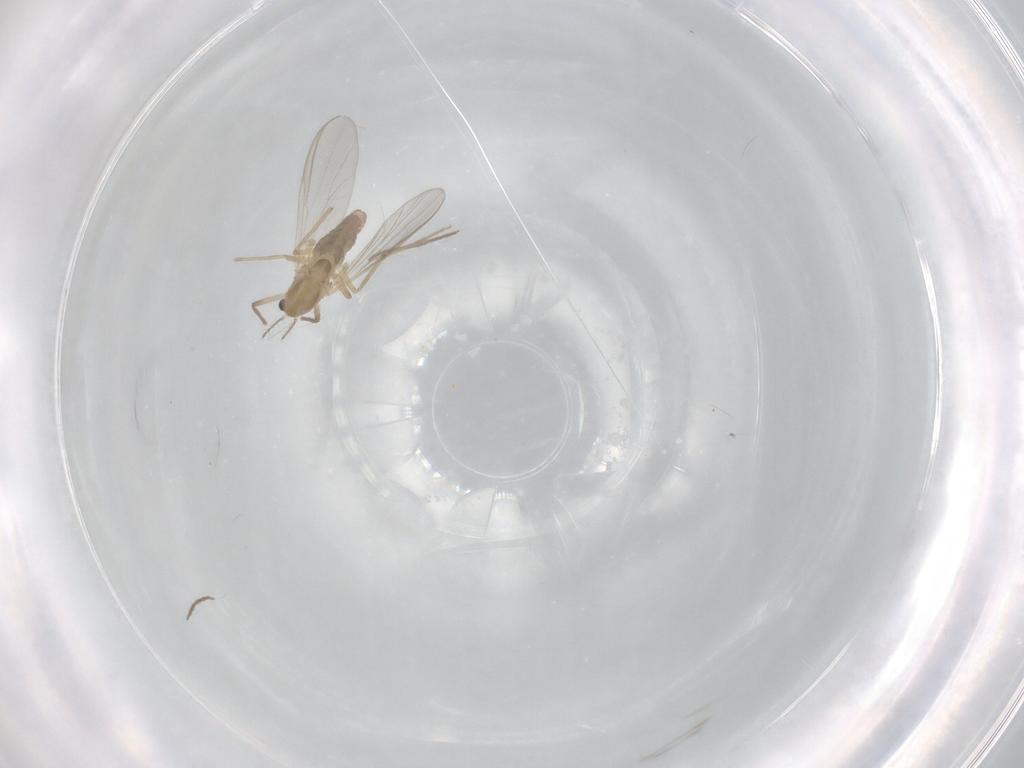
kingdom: Animalia
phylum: Arthropoda
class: Insecta
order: Diptera
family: Chironomidae
